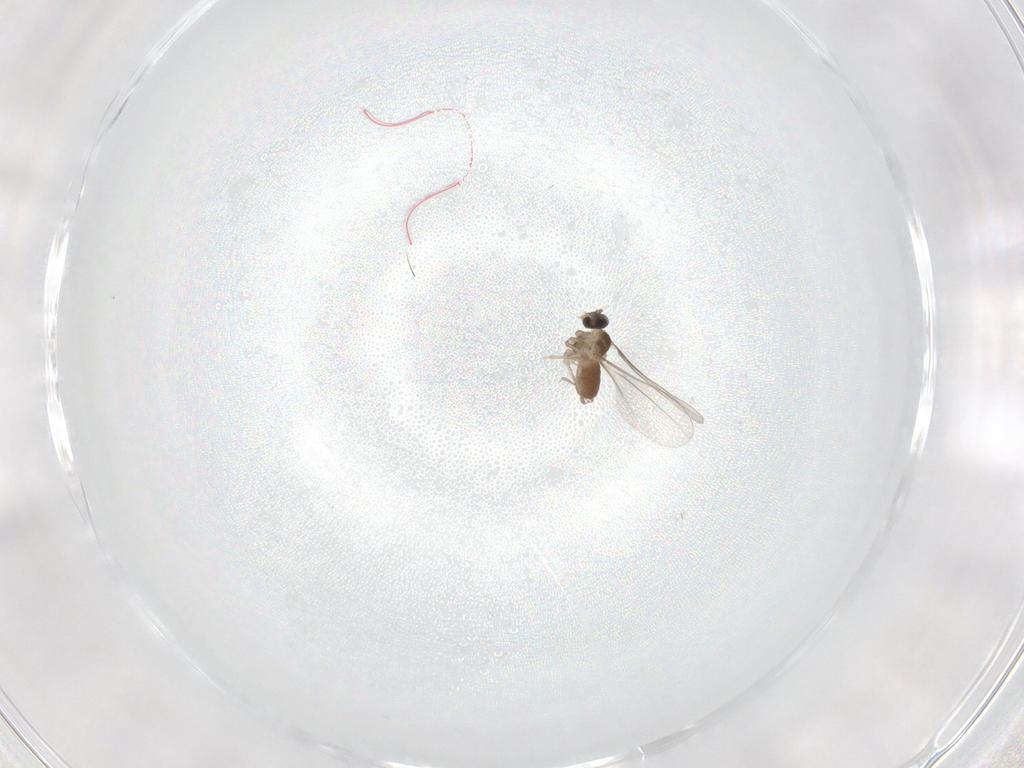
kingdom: Animalia
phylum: Arthropoda
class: Insecta
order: Diptera
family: Cecidomyiidae
